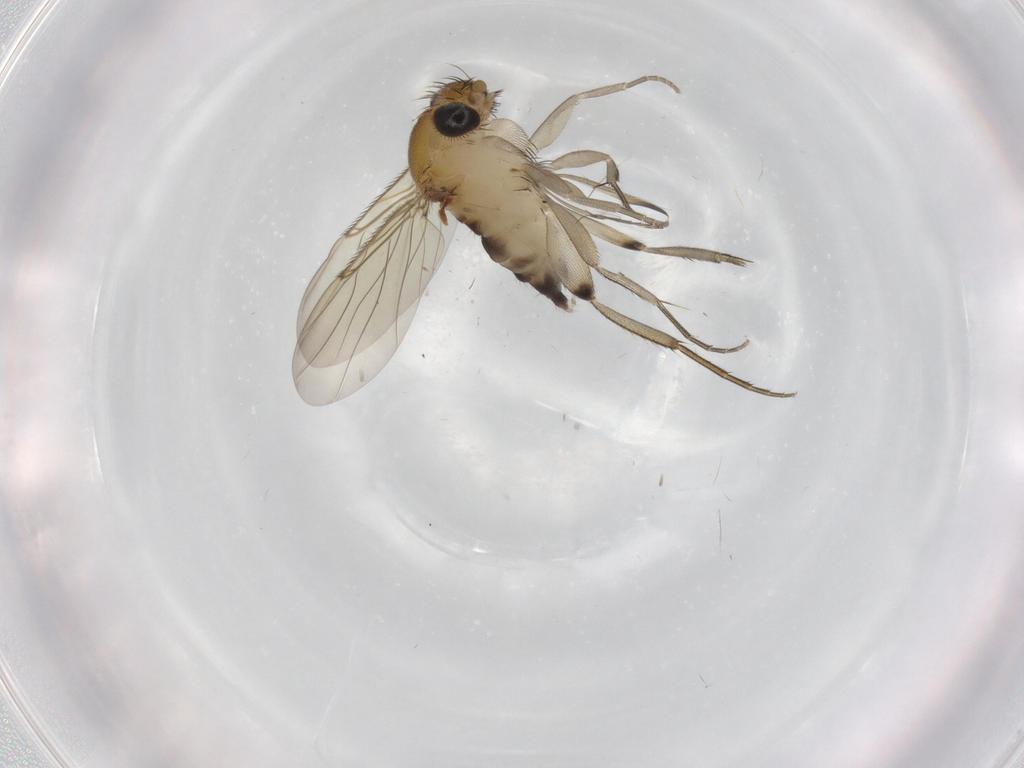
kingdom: Animalia
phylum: Arthropoda
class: Insecta
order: Diptera
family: Phoridae
